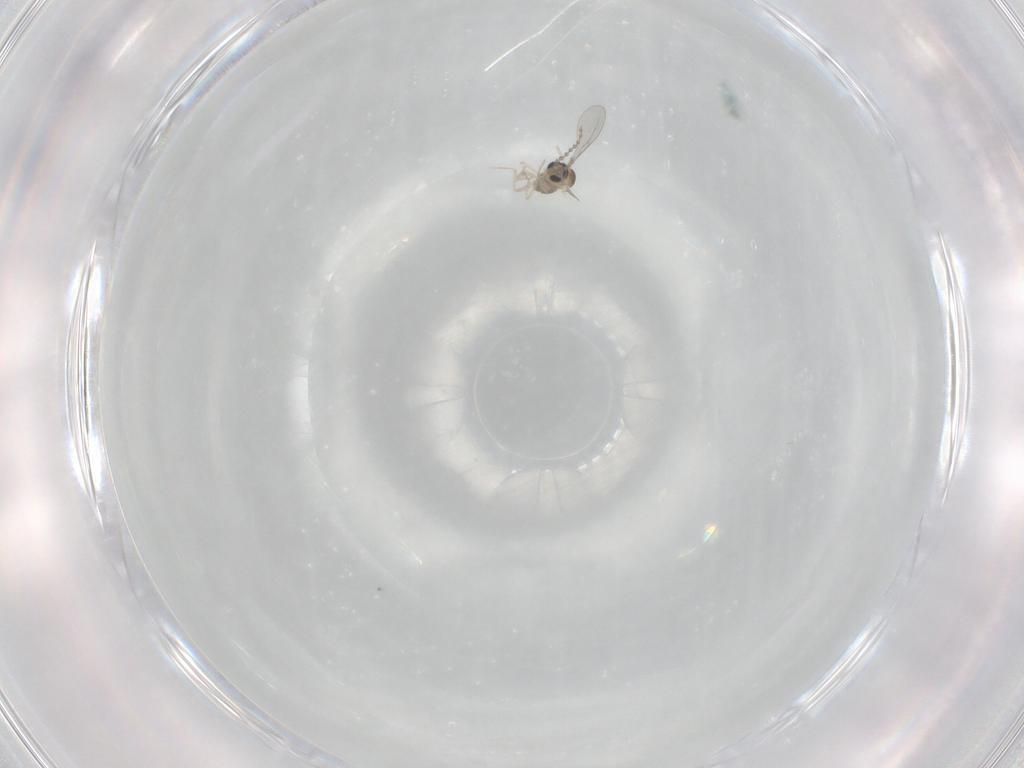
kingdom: Animalia
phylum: Arthropoda
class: Insecta
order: Diptera
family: Cecidomyiidae
